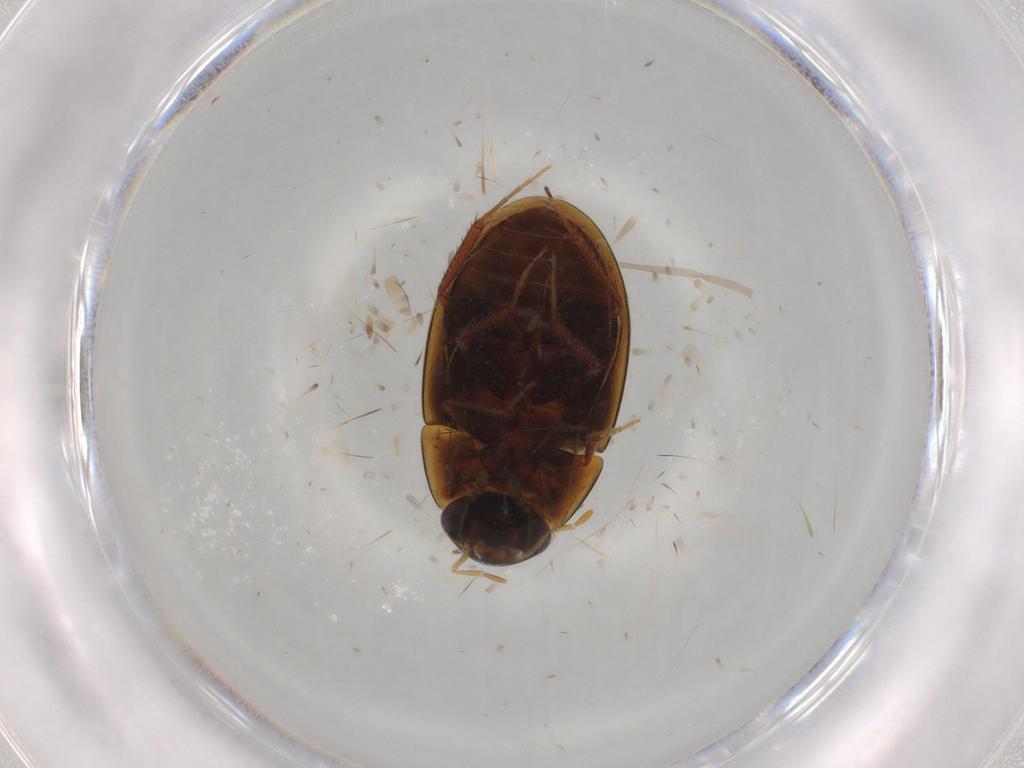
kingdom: Animalia
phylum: Arthropoda
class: Insecta
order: Coleoptera
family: Hydrophilidae
